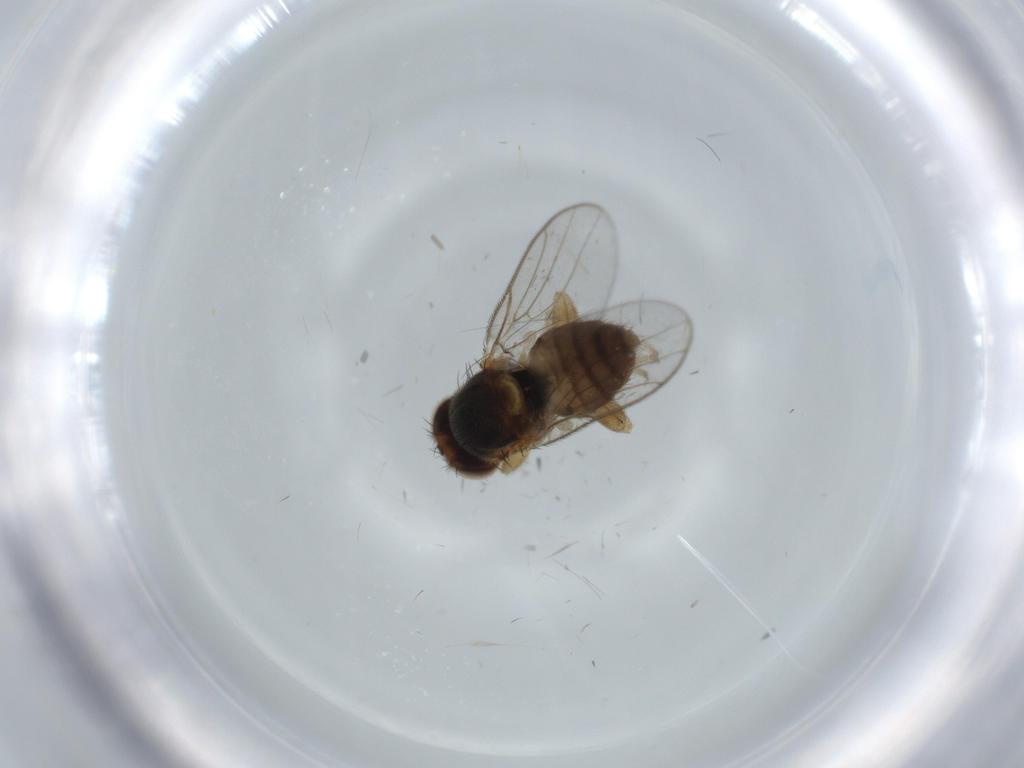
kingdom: Animalia
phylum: Arthropoda
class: Insecta
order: Diptera
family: Chloropidae
